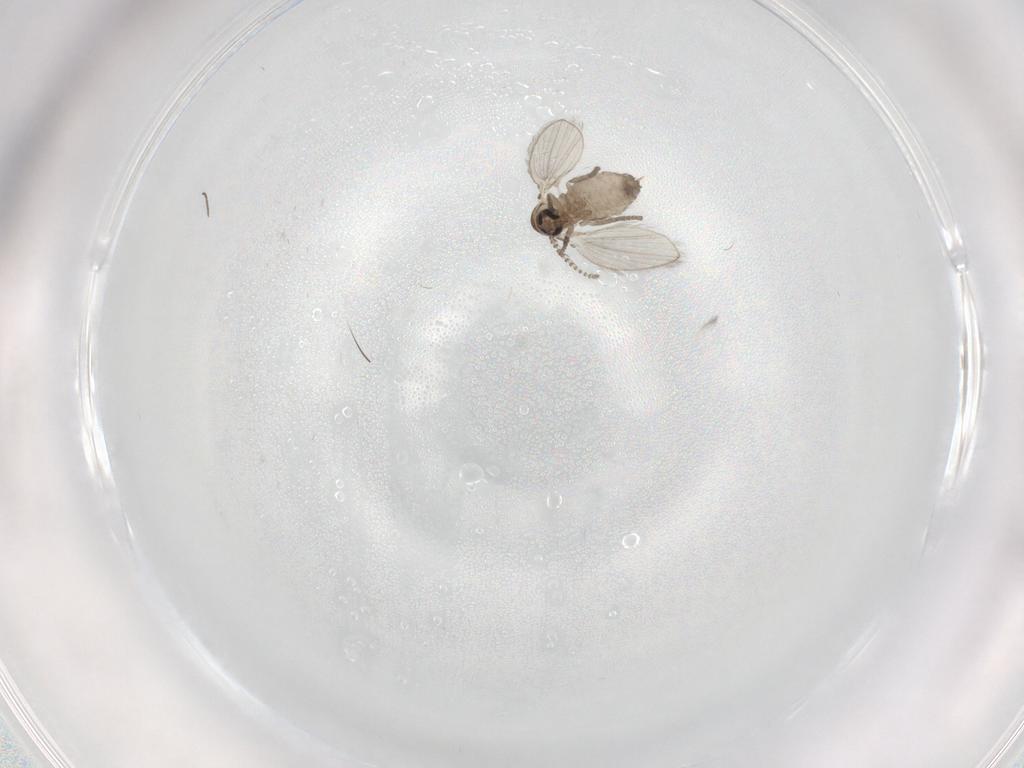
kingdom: Animalia
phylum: Arthropoda
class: Insecta
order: Diptera
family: Psychodidae
